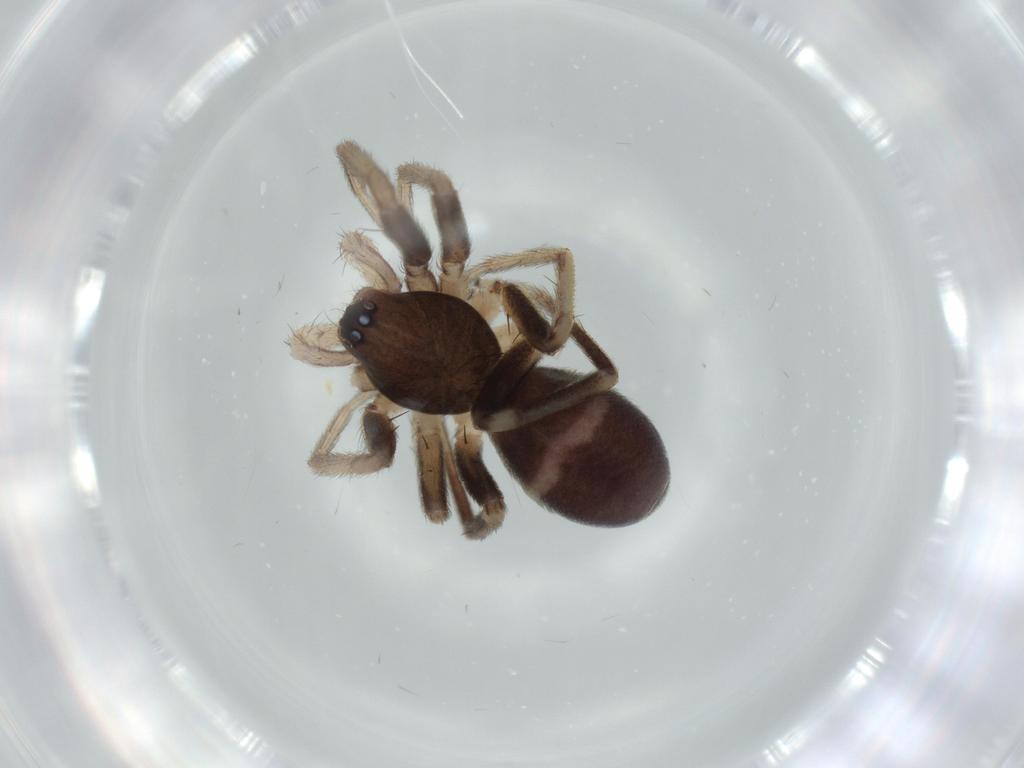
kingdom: Animalia
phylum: Arthropoda
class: Arachnida
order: Araneae
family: Corinnidae
